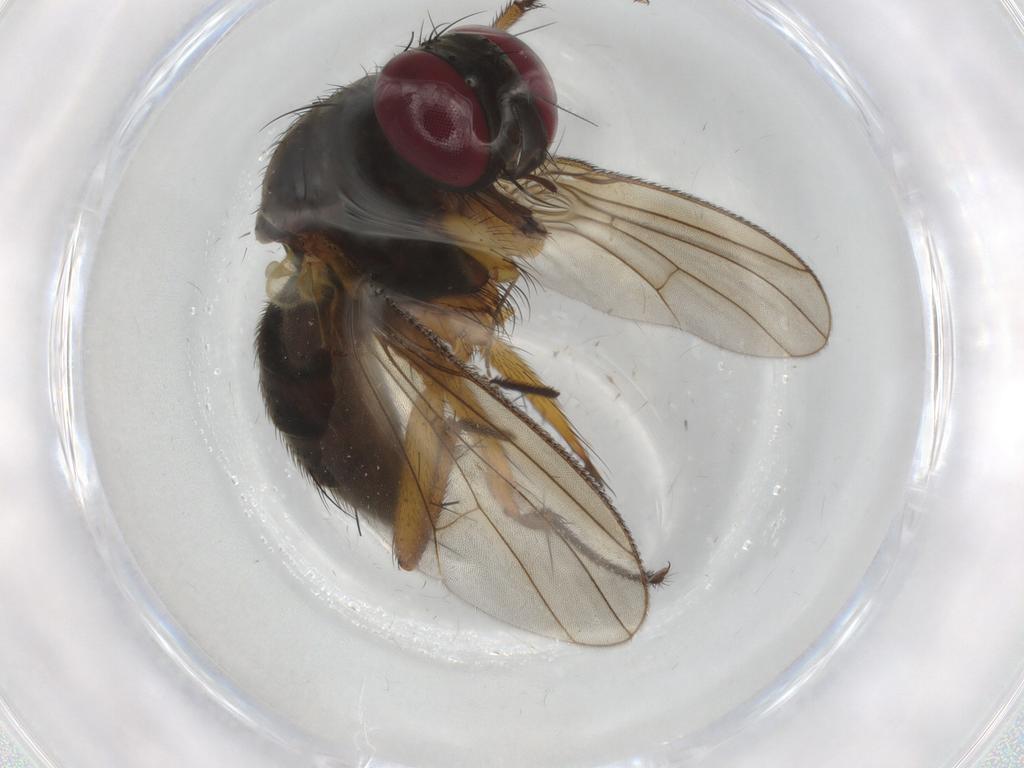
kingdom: Animalia
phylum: Arthropoda
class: Insecta
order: Diptera
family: Muscidae
